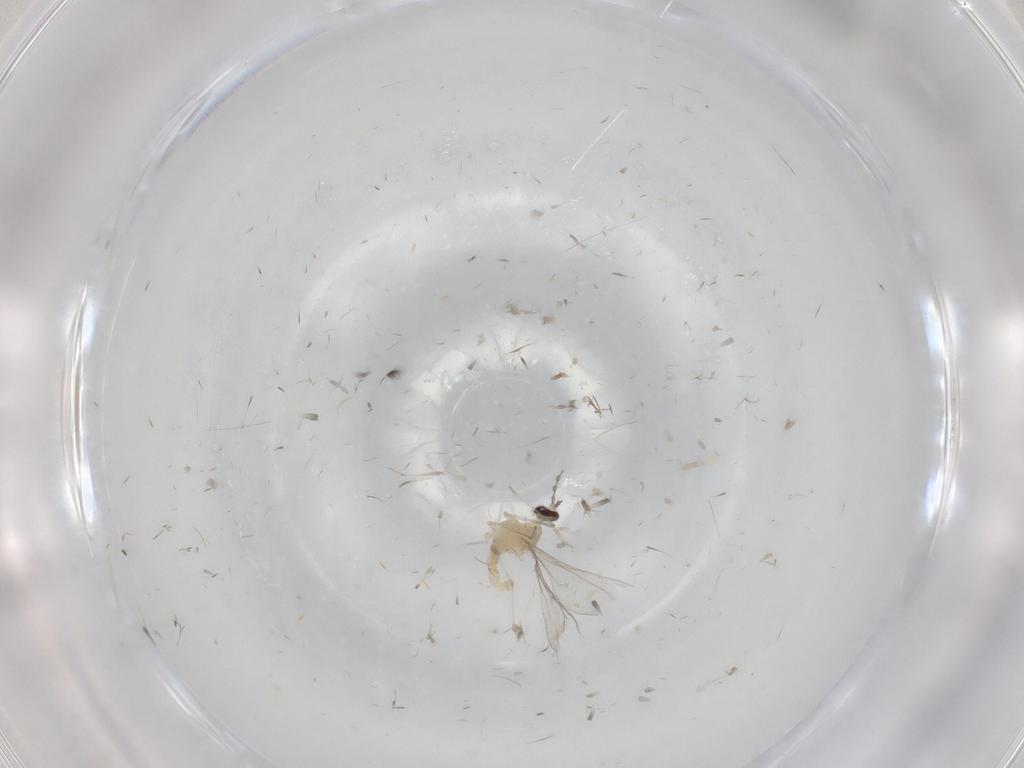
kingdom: Animalia
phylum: Arthropoda
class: Insecta
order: Diptera
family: Cecidomyiidae
